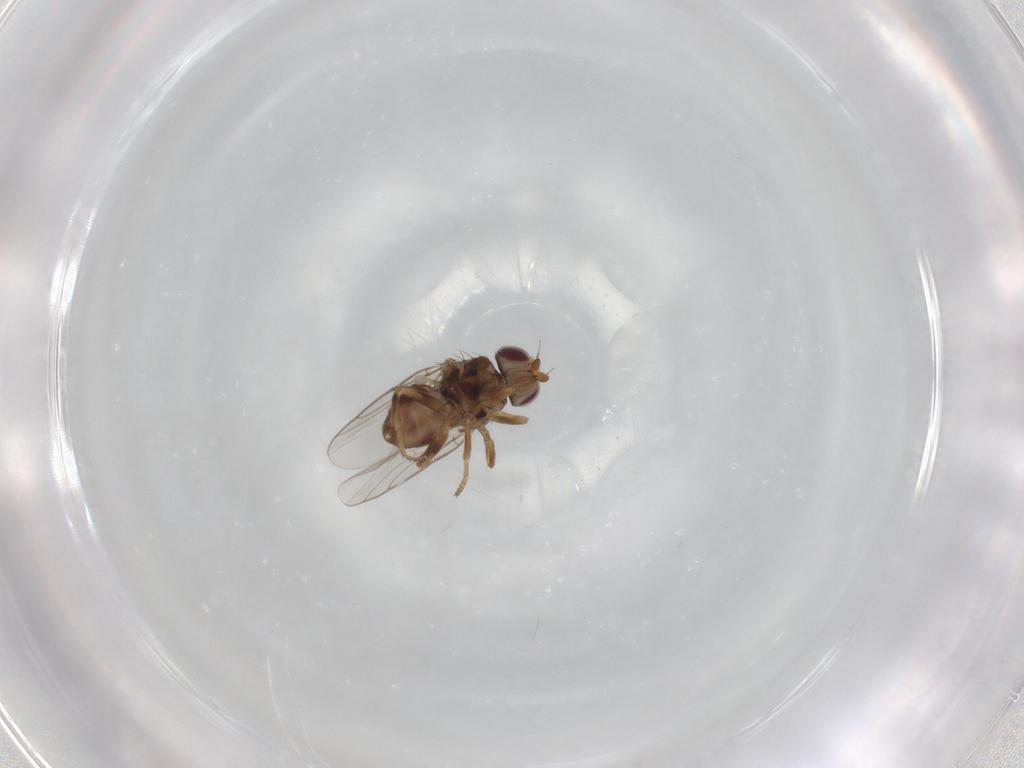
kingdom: Animalia
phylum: Arthropoda
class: Insecta
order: Diptera
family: Chloropidae
